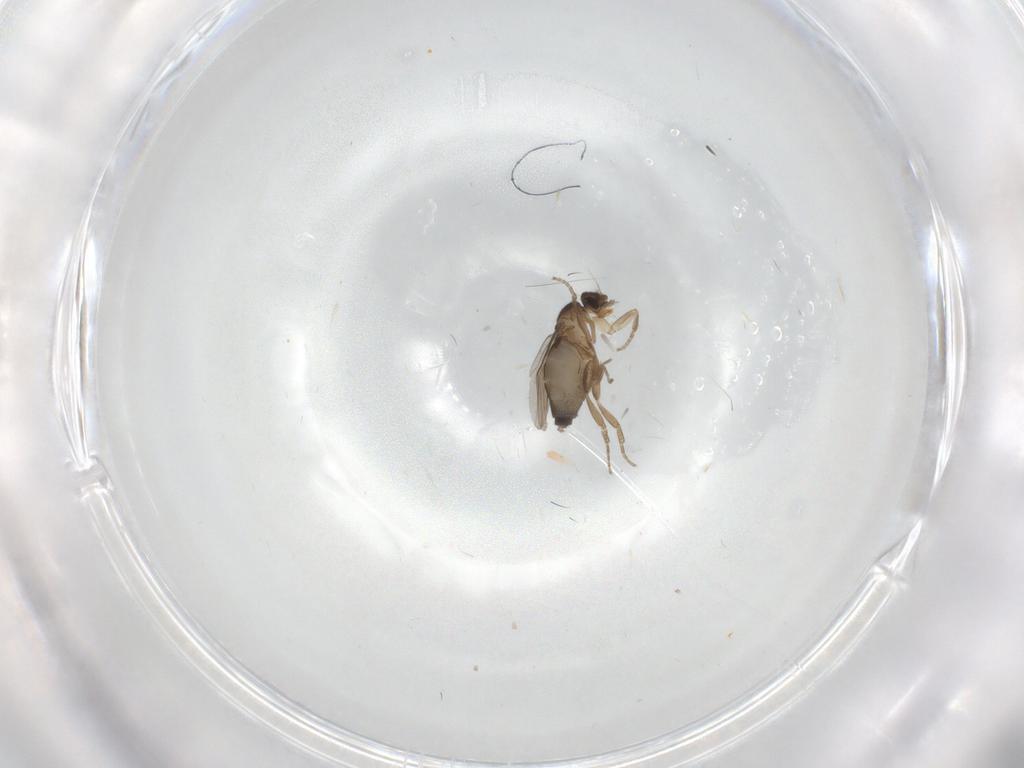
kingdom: Animalia
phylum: Arthropoda
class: Insecta
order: Diptera
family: Phoridae
